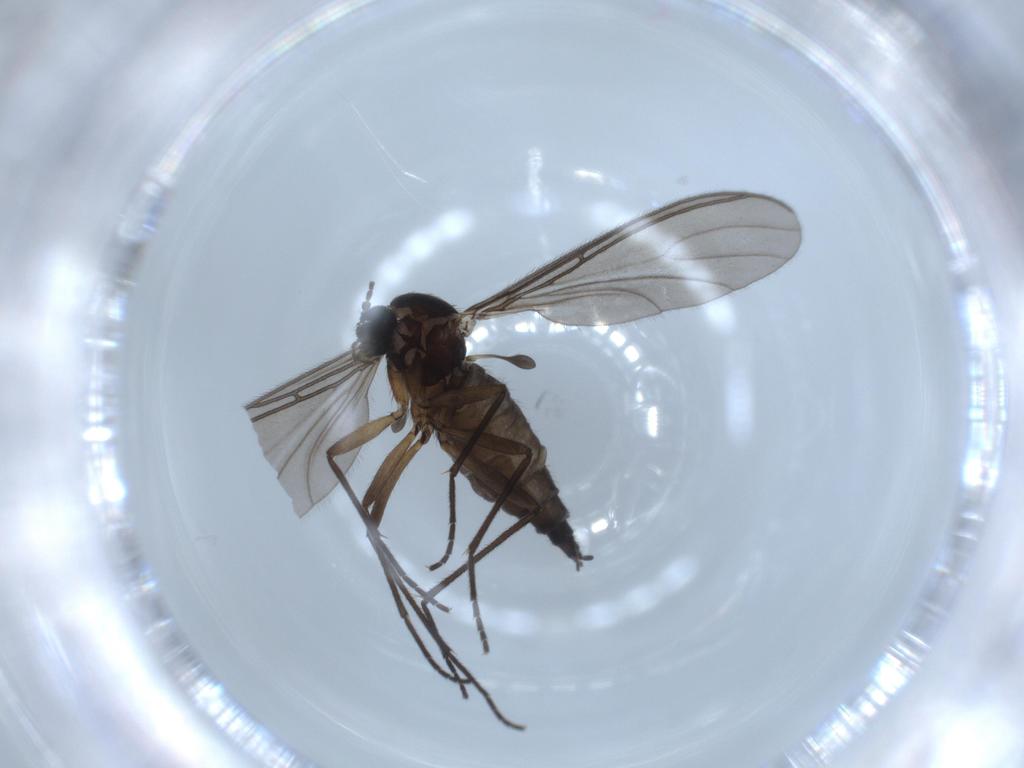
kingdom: Animalia
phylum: Arthropoda
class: Insecta
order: Diptera
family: Sciaridae
